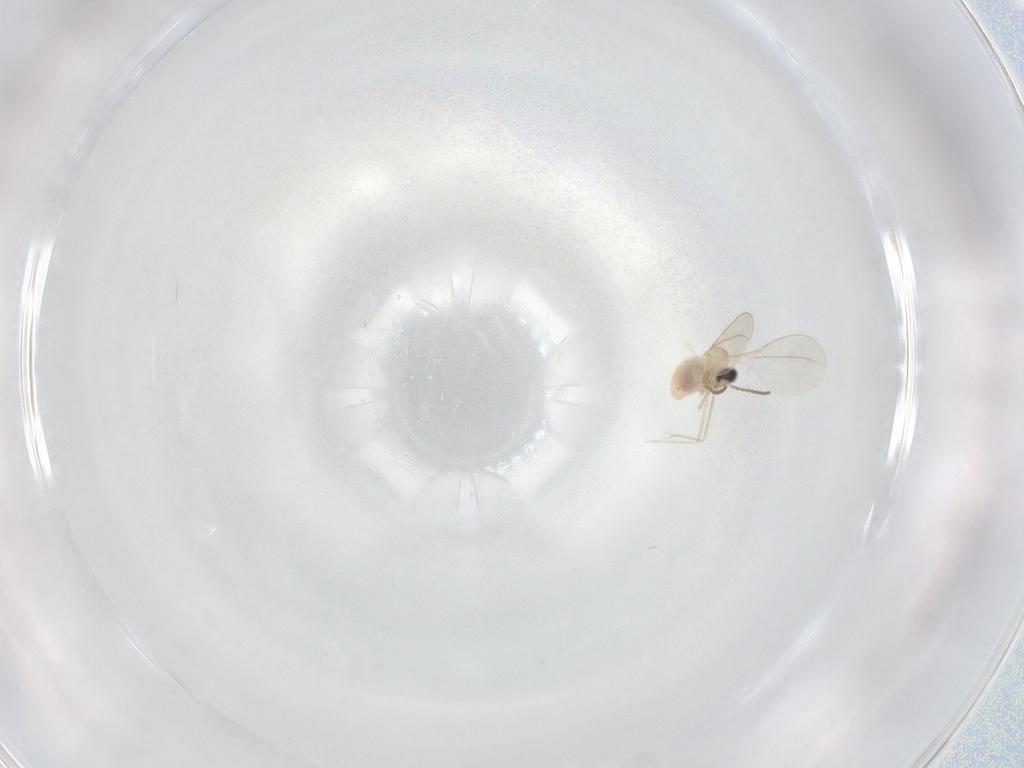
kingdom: Animalia
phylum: Arthropoda
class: Insecta
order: Diptera
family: Cecidomyiidae
